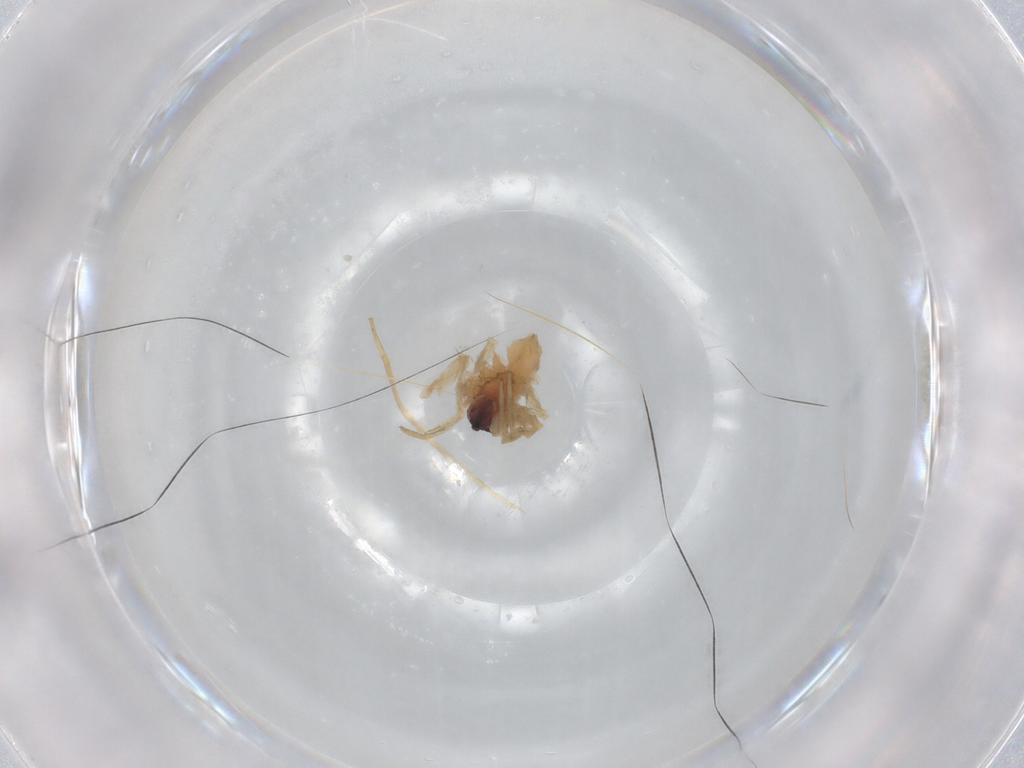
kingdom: Animalia
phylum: Arthropoda
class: Arachnida
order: Araneae
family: Lycosidae
